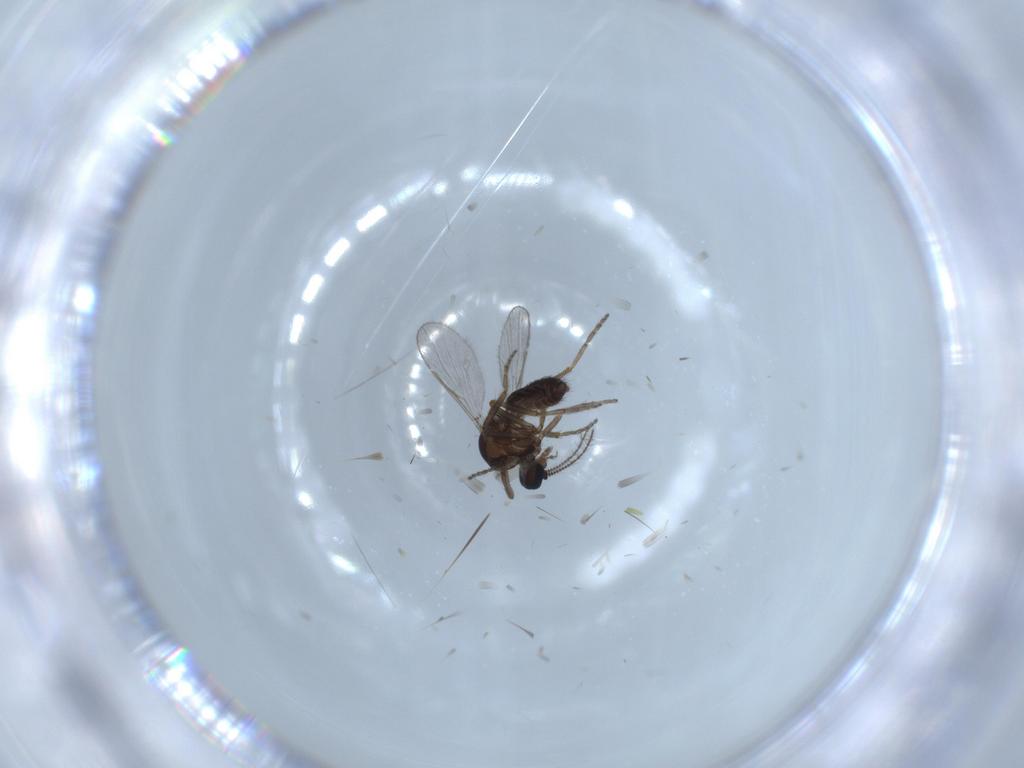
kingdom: Animalia
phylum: Arthropoda
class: Insecta
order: Diptera
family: Ceratopogonidae
